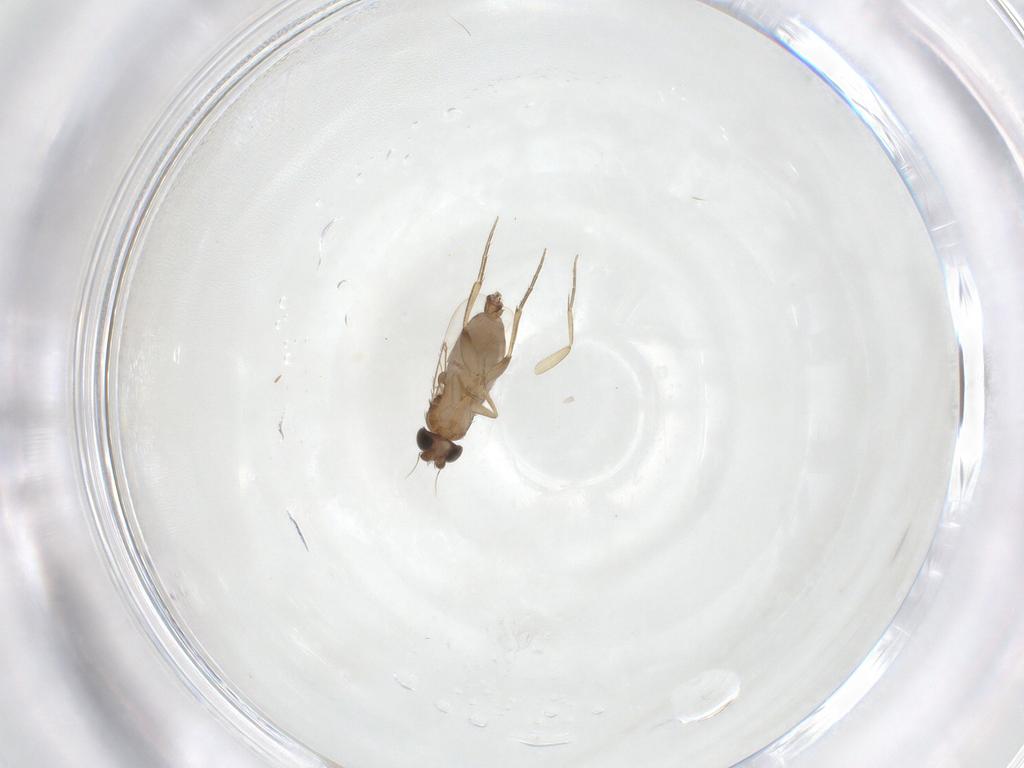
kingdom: Animalia
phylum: Arthropoda
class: Insecta
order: Diptera
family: Phoridae
